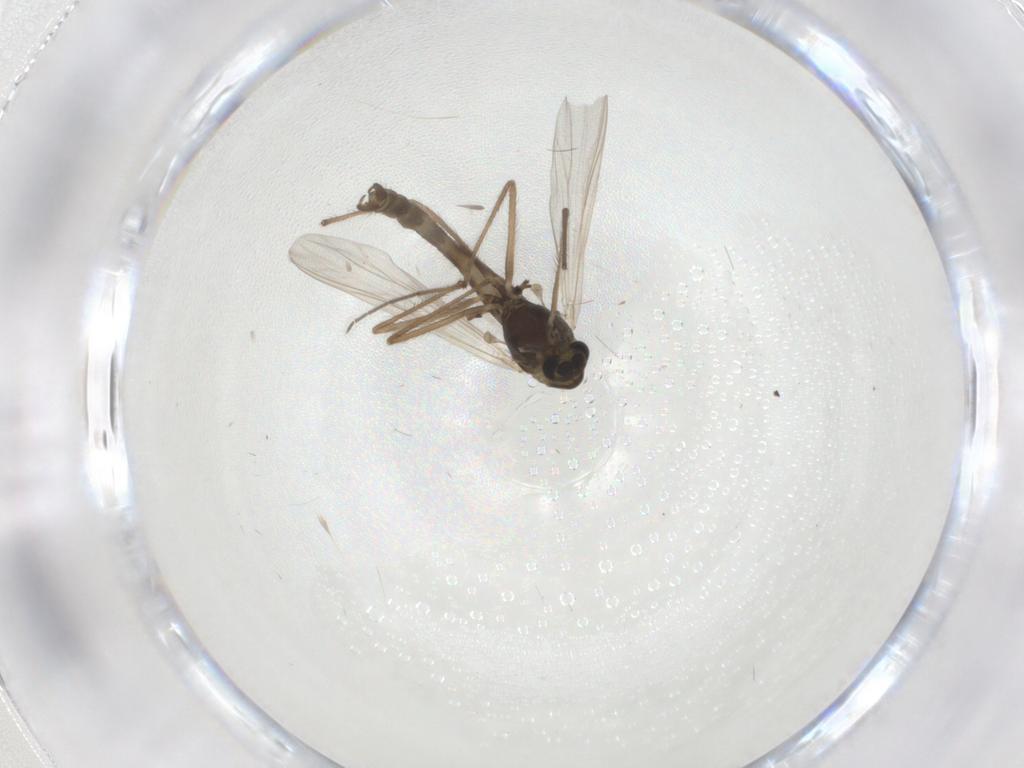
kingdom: Animalia
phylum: Arthropoda
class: Insecta
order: Diptera
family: Chironomidae
